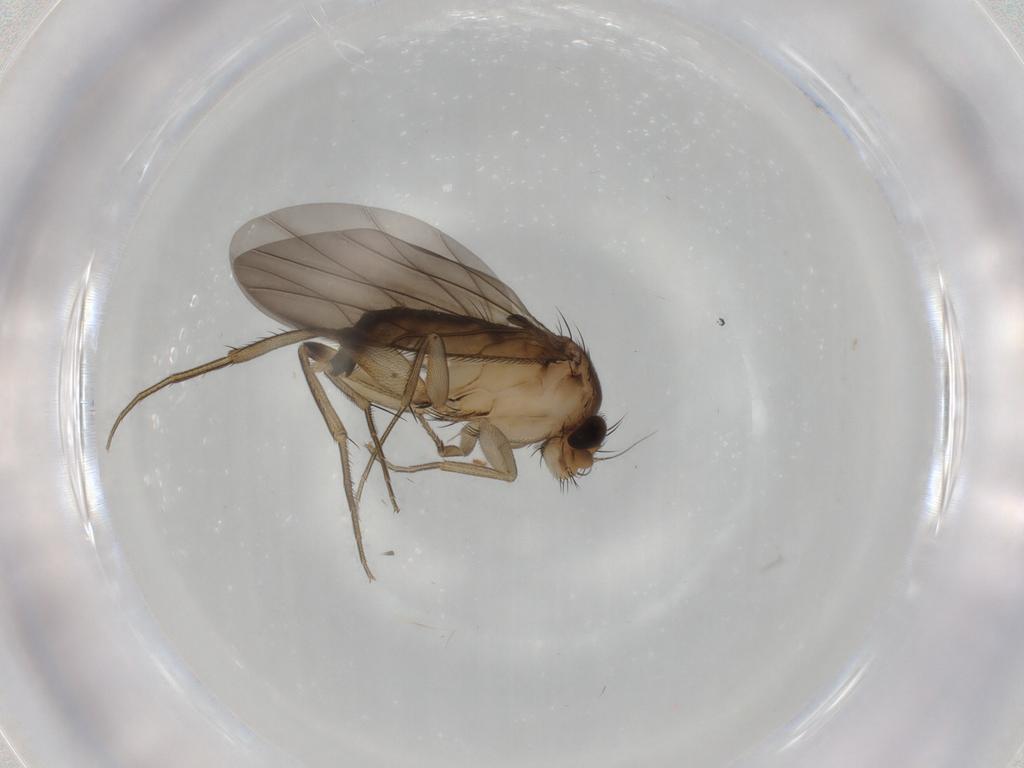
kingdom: Animalia
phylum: Arthropoda
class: Insecta
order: Diptera
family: Phoridae
